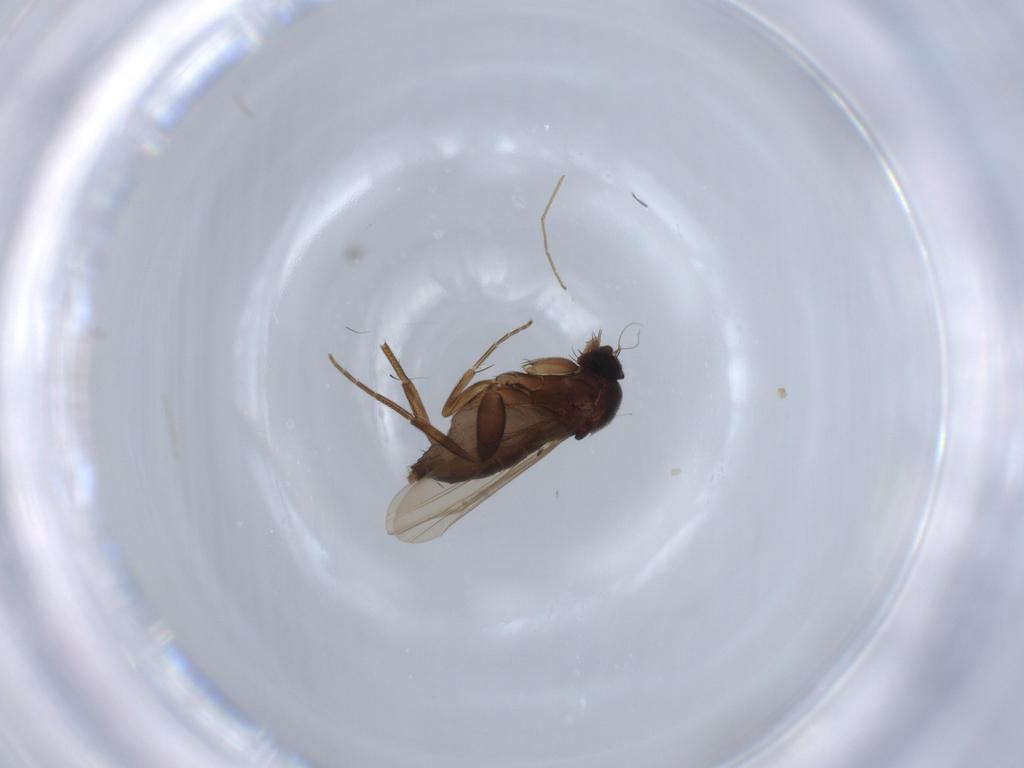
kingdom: Animalia
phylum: Arthropoda
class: Insecta
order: Diptera
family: Phoridae
